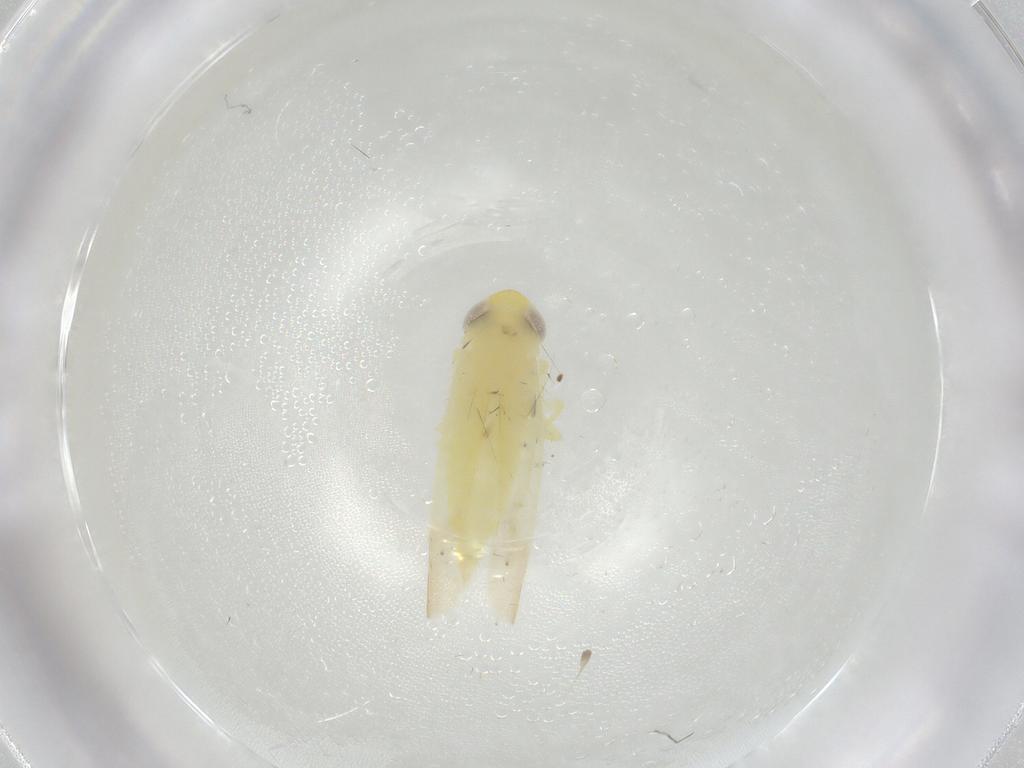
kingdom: Animalia
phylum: Arthropoda
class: Insecta
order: Hemiptera
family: Cicadellidae
